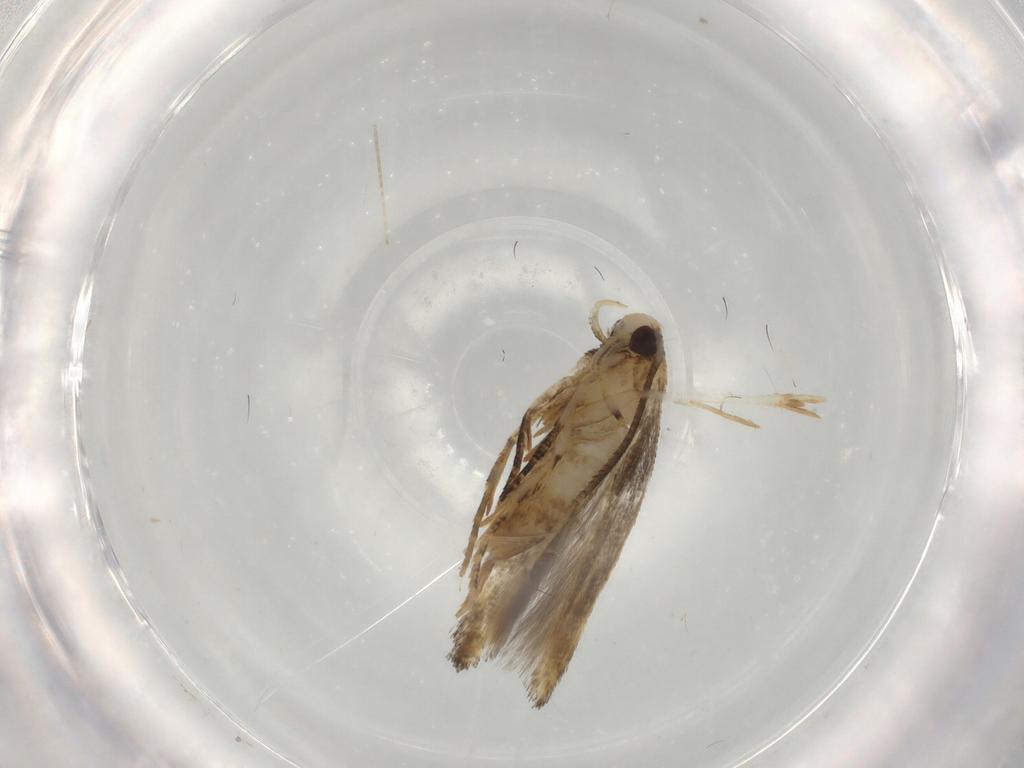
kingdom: Animalia
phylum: Arthropoda
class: Insecta
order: Lepidoptera
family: Cosmopterigidae
